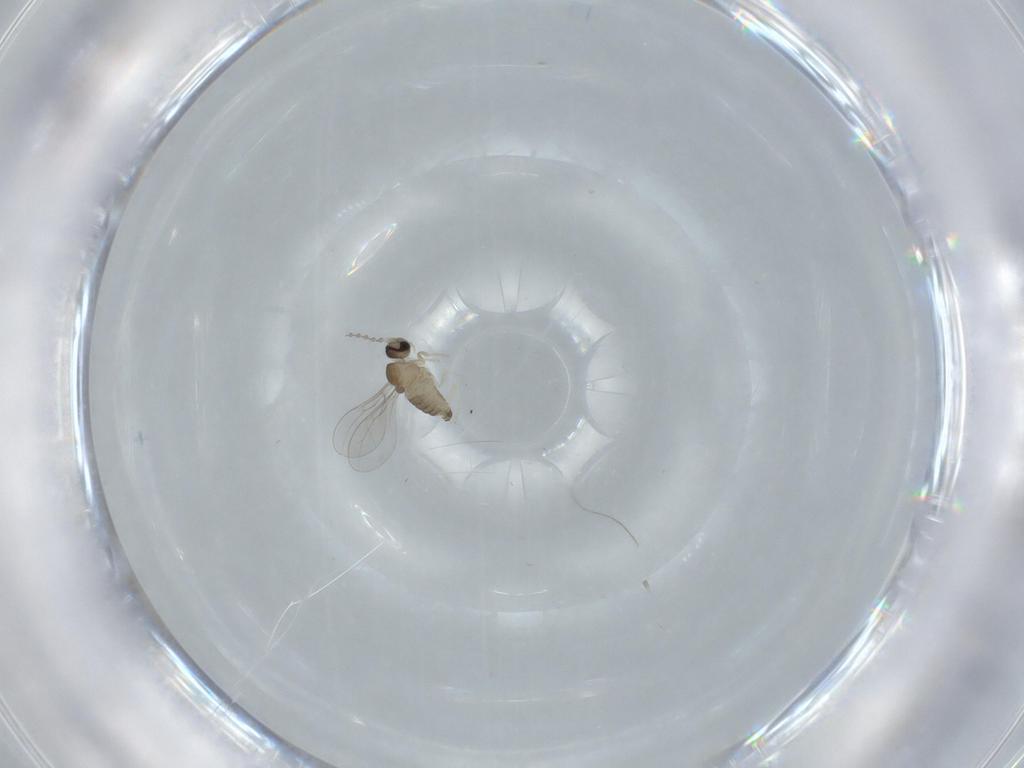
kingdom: Animalia
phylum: Arthropoda
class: Insecta
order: Diptera
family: Cecidomyiidae
